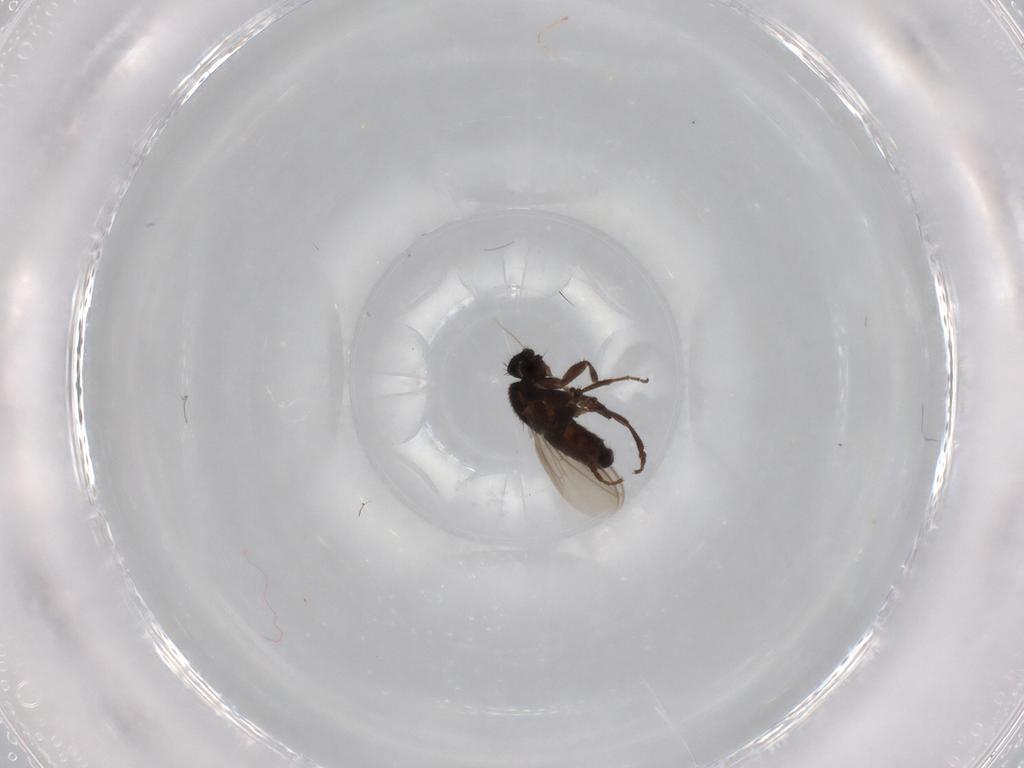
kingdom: Animalia
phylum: Arthropoda
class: Insecta
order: Diptera
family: Sphaeroceridae
